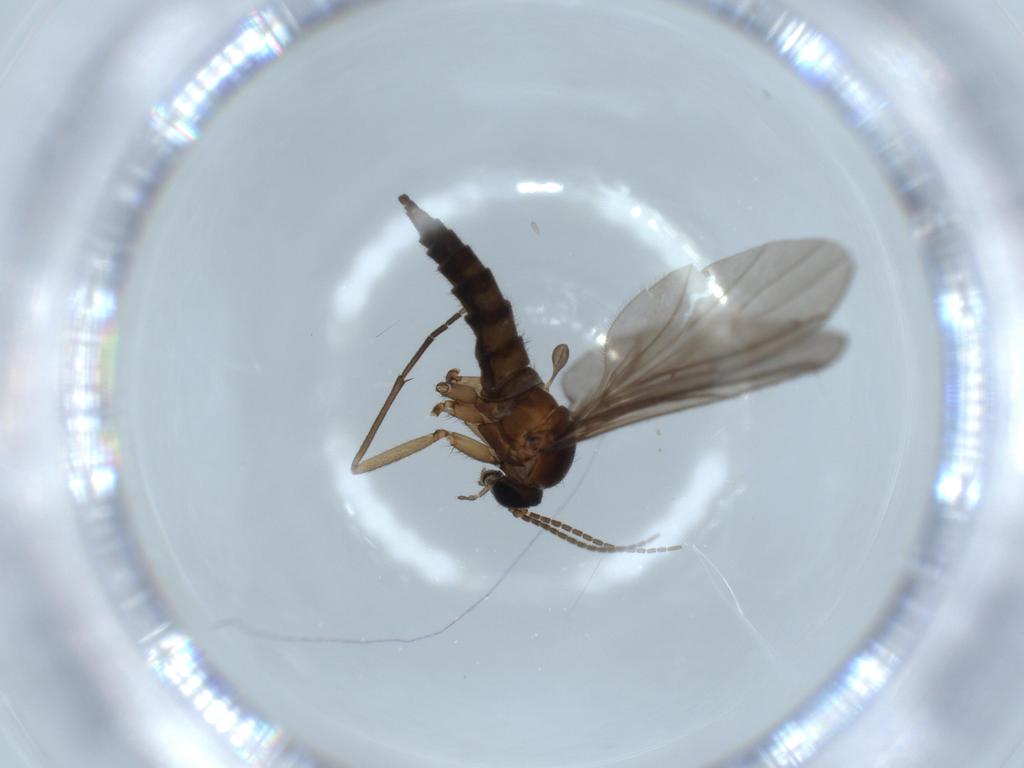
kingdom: Animalia
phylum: Arthropoda
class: Insecta
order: Diptera
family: Sciaridae
